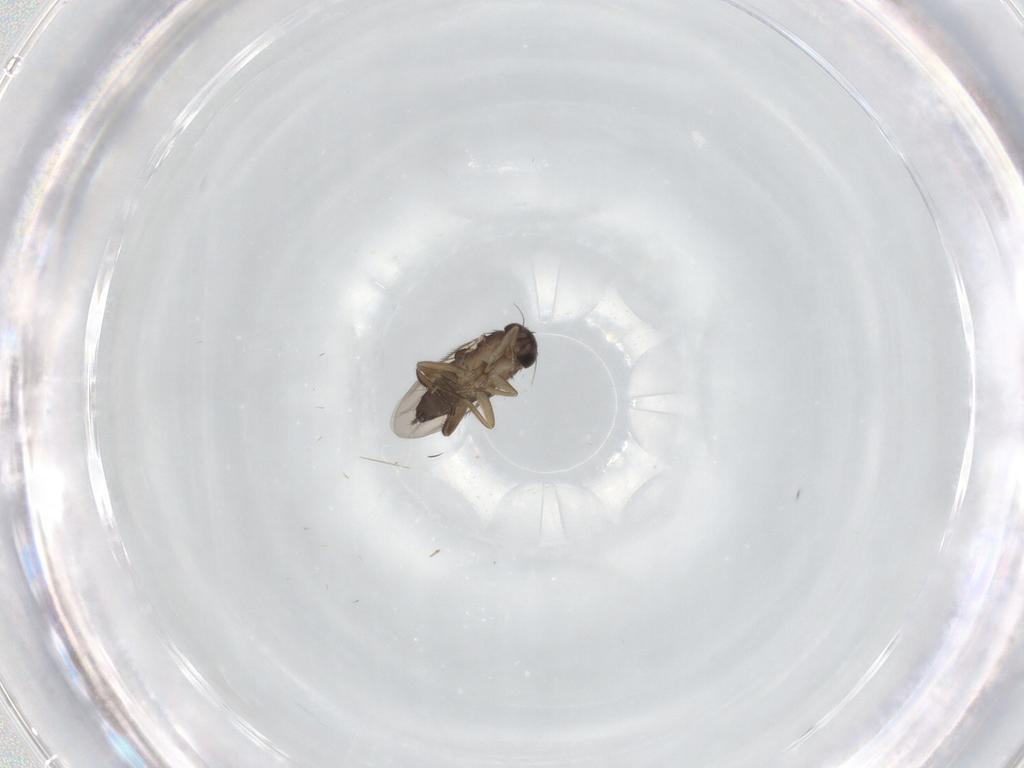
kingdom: Animalia
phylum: Arthropoda
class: Insecta
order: Diptera
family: Phoridae
